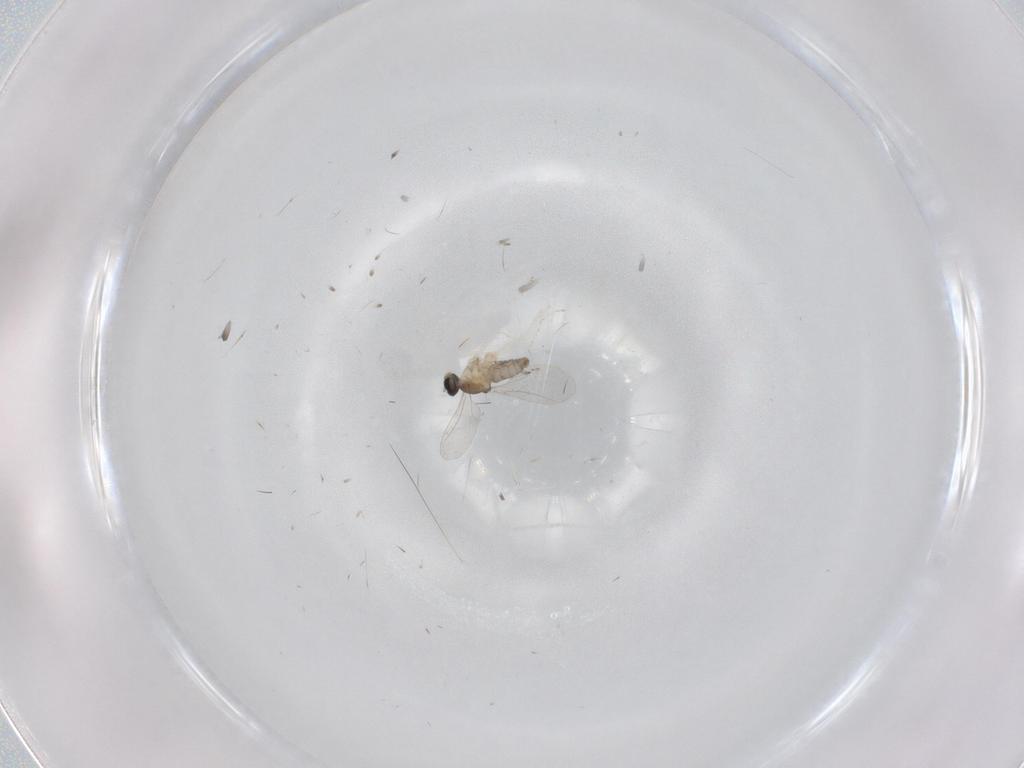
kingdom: Animalia
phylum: Arthropoda
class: Insecta
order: Diptera
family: Cecidomyiidae
